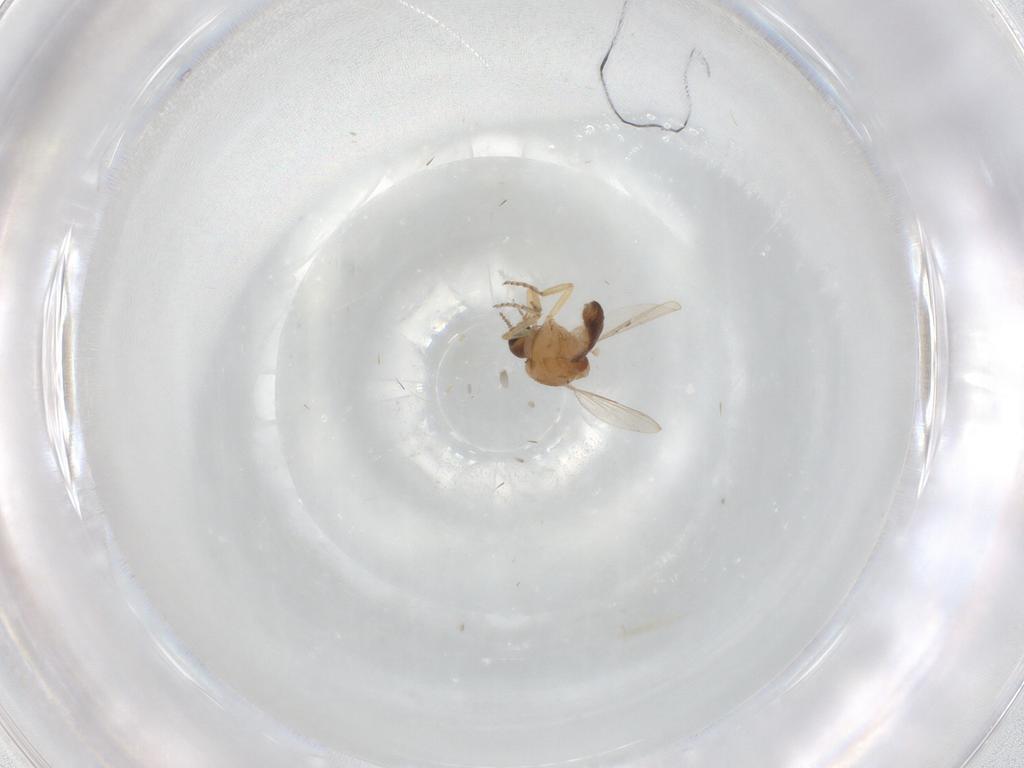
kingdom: Animalia
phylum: Arthropoda
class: Insecta
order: Diptera
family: Ceratopogonidae
